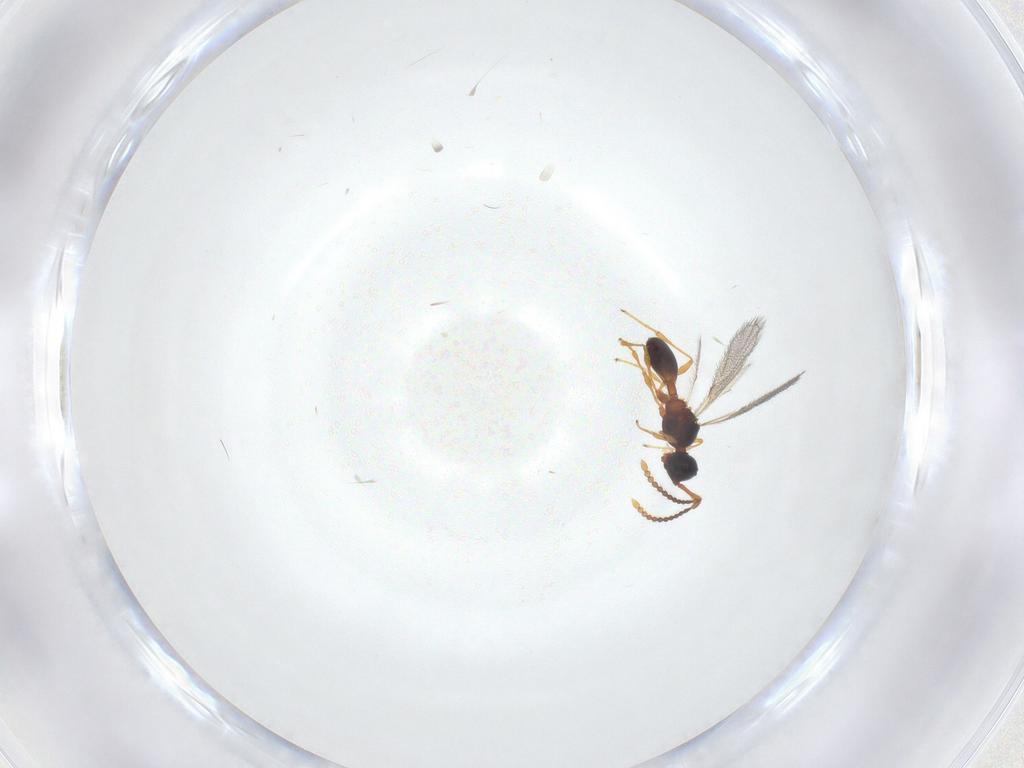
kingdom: Animalia
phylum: Arthropoda
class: Insecta
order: Hymenoptera
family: Diapriidae
